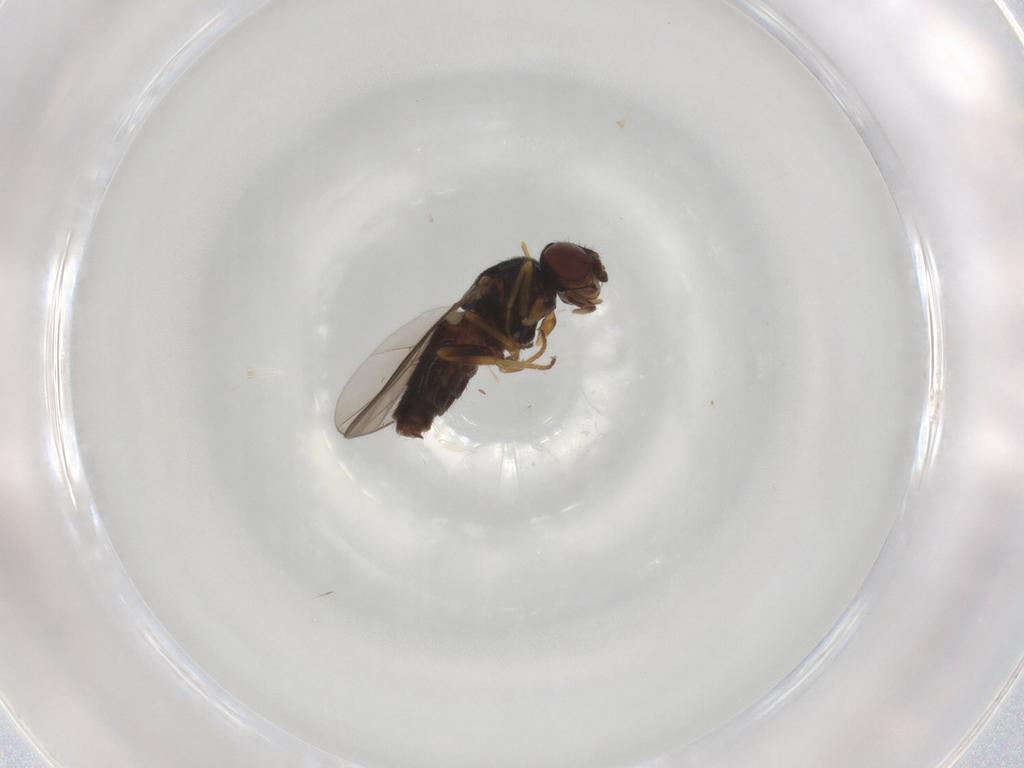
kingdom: Animalia
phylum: Arthropoda
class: Insecta
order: Diptera
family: Chloropidae
